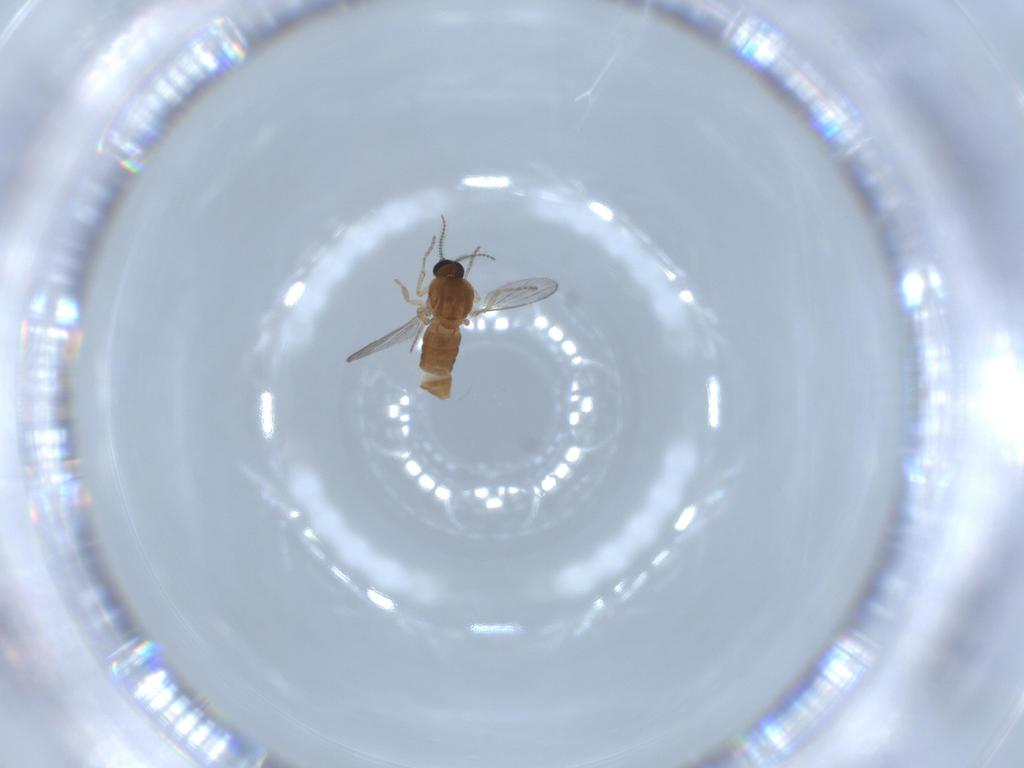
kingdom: Animalia
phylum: Arthropoda
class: Insecta
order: Diptera
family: Ceratopogonidae
